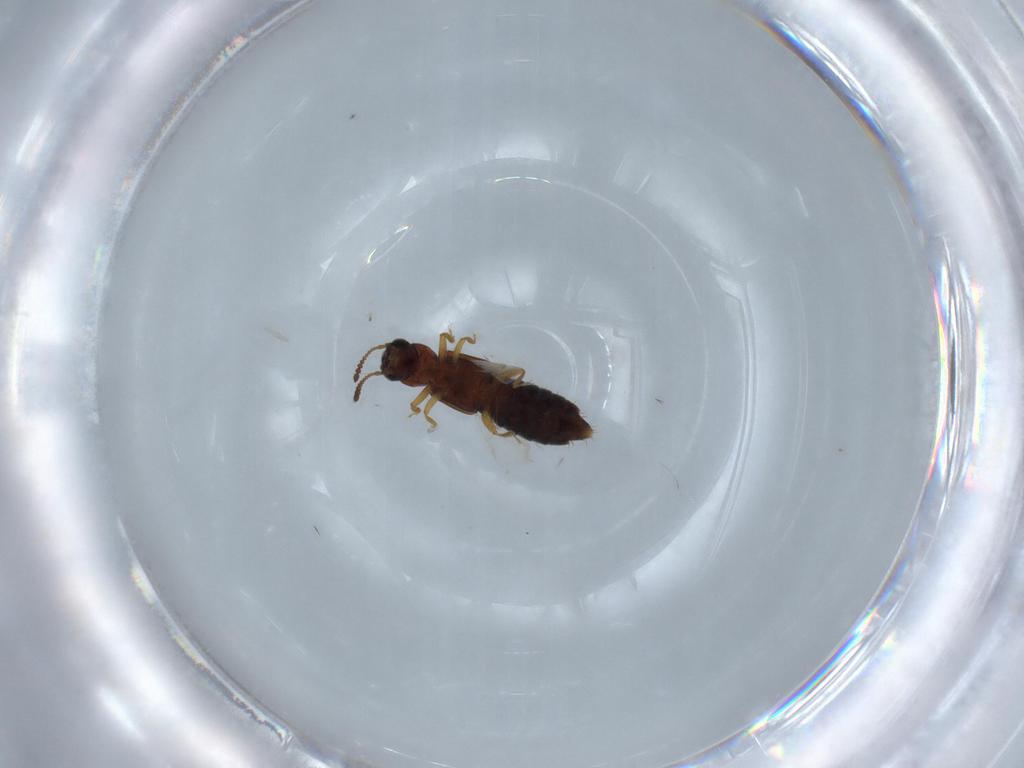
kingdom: Animalia
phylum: Arthropoda
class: Insecta
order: Coleoptera
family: Staphylinidae
